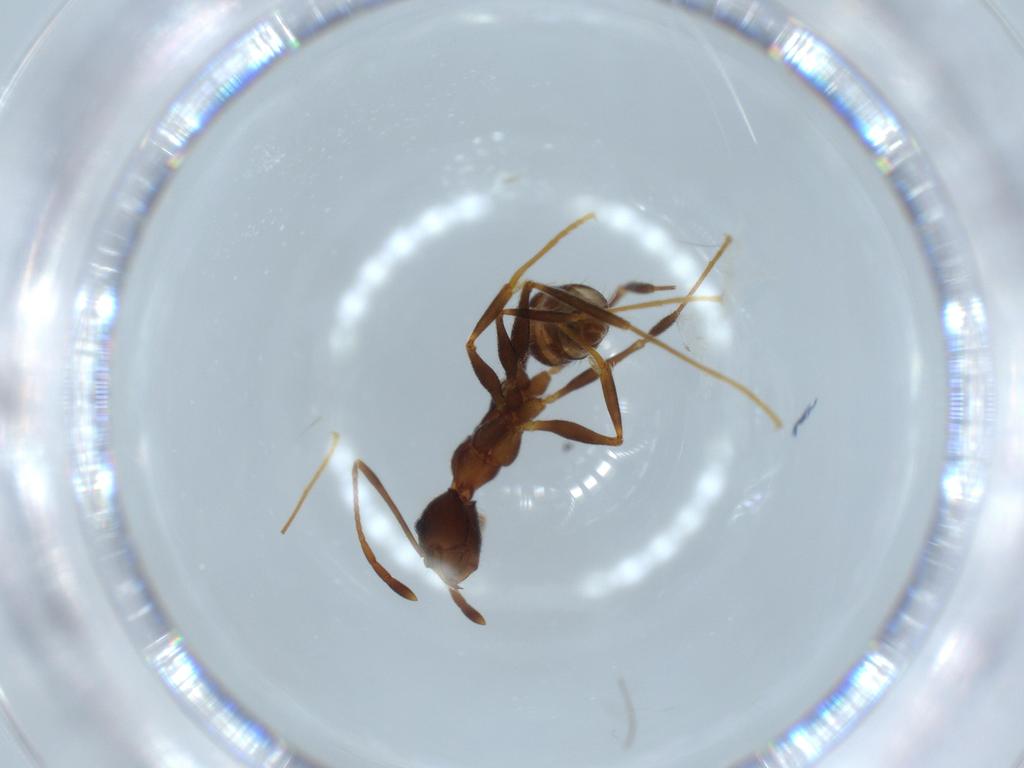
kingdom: Animalia
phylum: Arthropoda
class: Insecta
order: Hymenoptera
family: Formicidae
